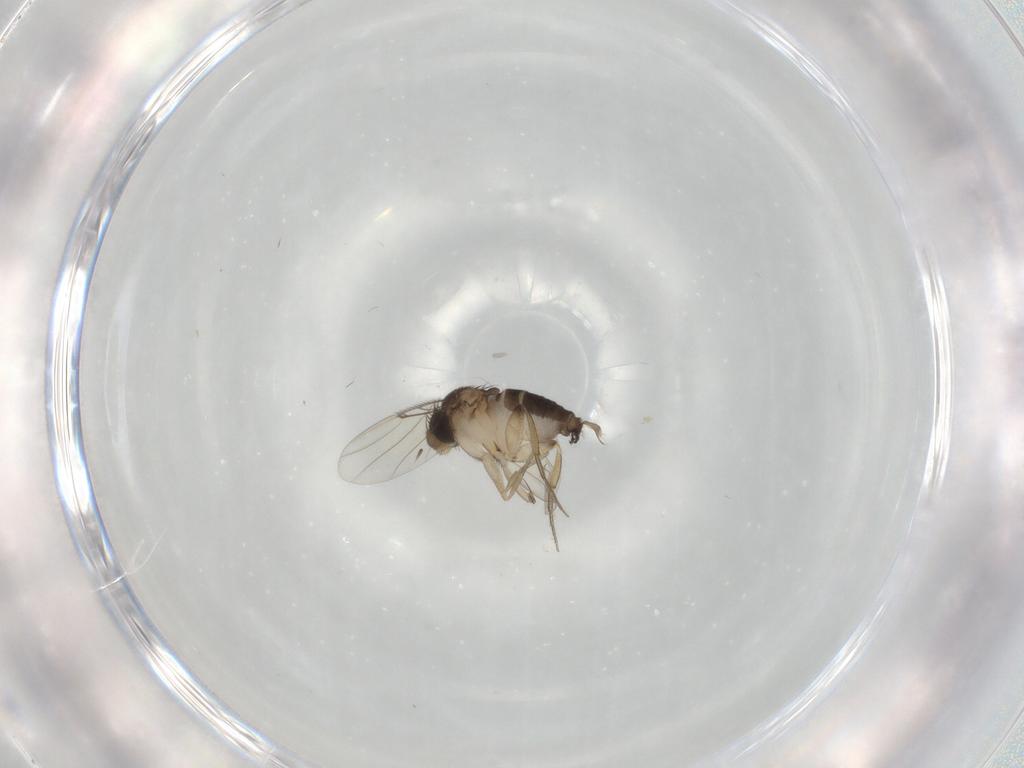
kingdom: Animalia
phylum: Arthropoda
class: Insecta
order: Diptera
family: Phoridae
